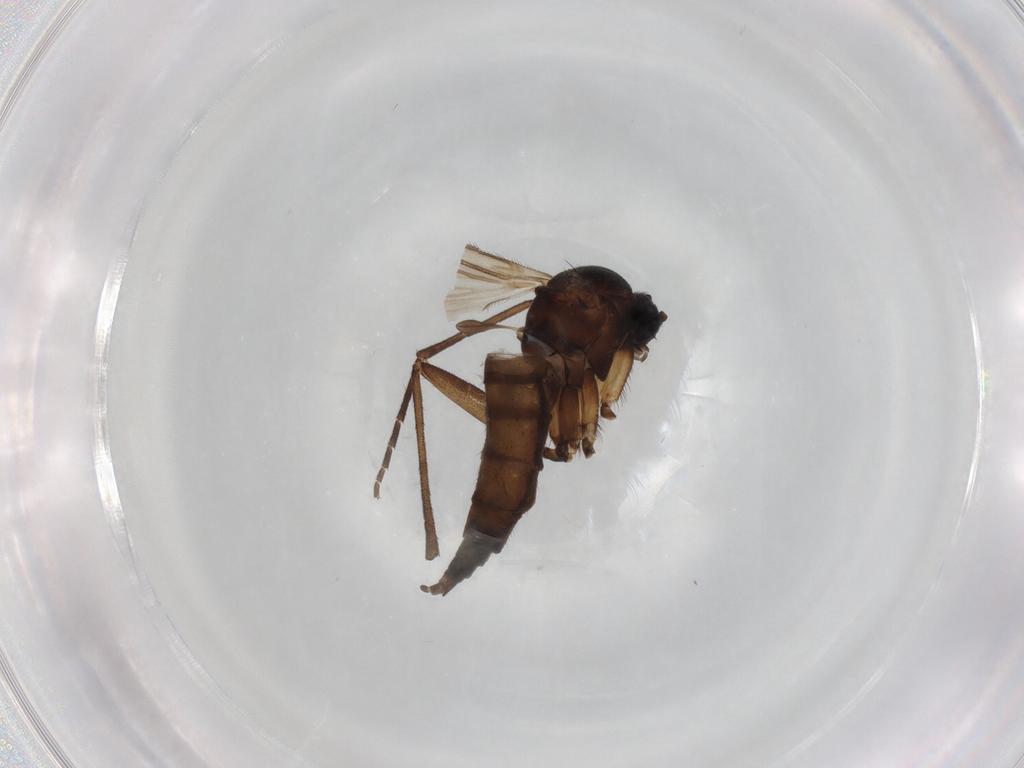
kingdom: Animalia
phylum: Arthropoda
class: Insecta
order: Diptera
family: Sciaridae
